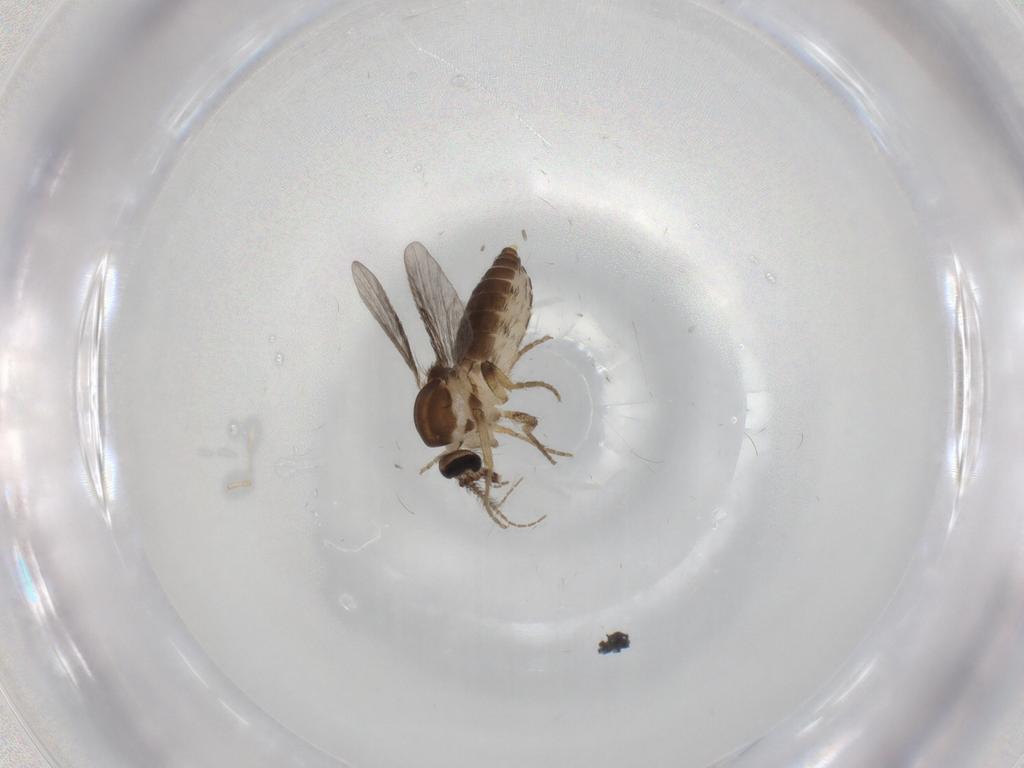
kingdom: Animalia
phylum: Arthropoda
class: Insecta
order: Diptera
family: Ceratopogonidae
